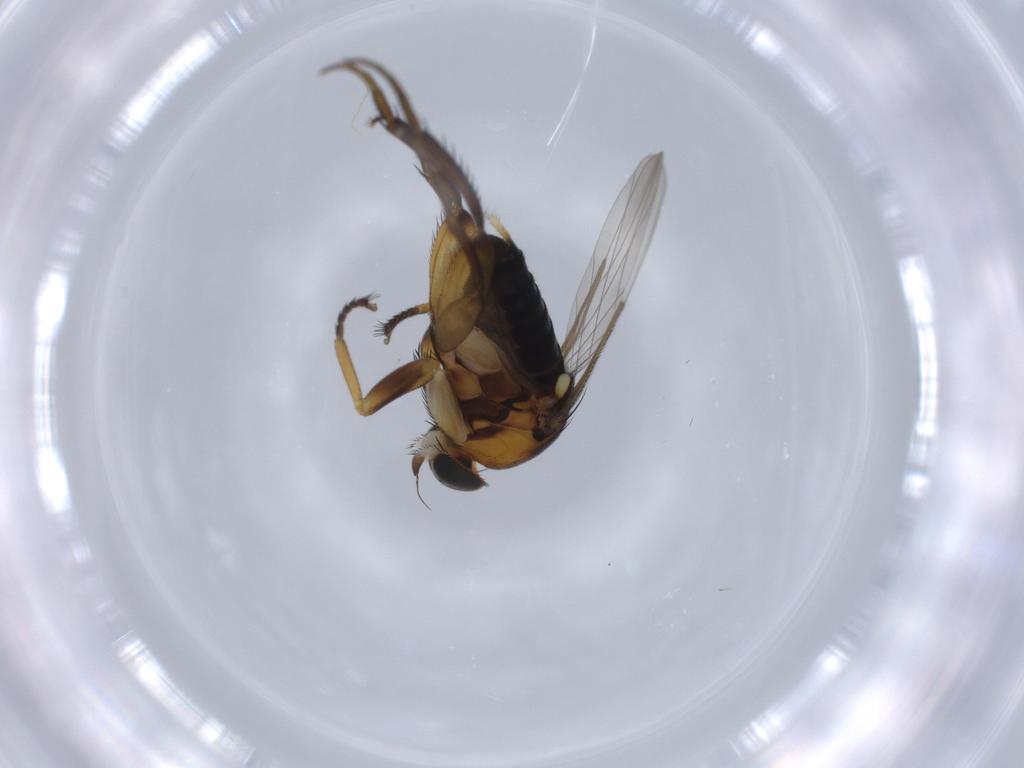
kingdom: Animalia
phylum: Arthropoda
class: Insecta
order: Diptera
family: Phoridae
